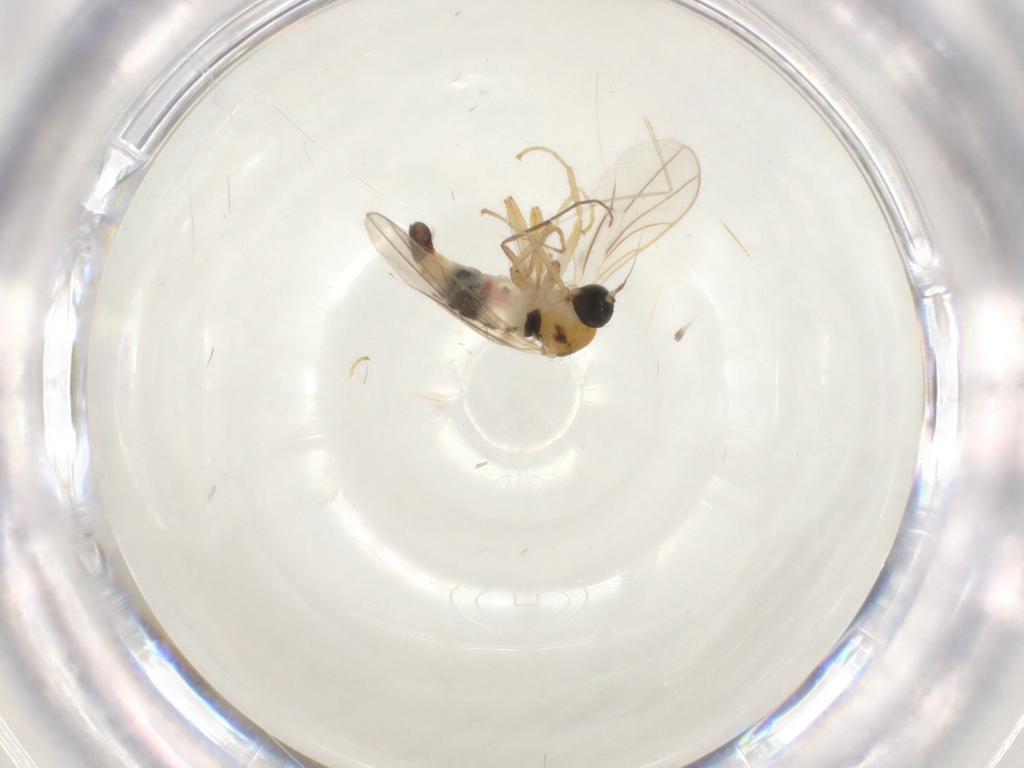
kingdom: Animalia
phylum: Arthropoda
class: Insecta
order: Diptera
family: Hybotidae
